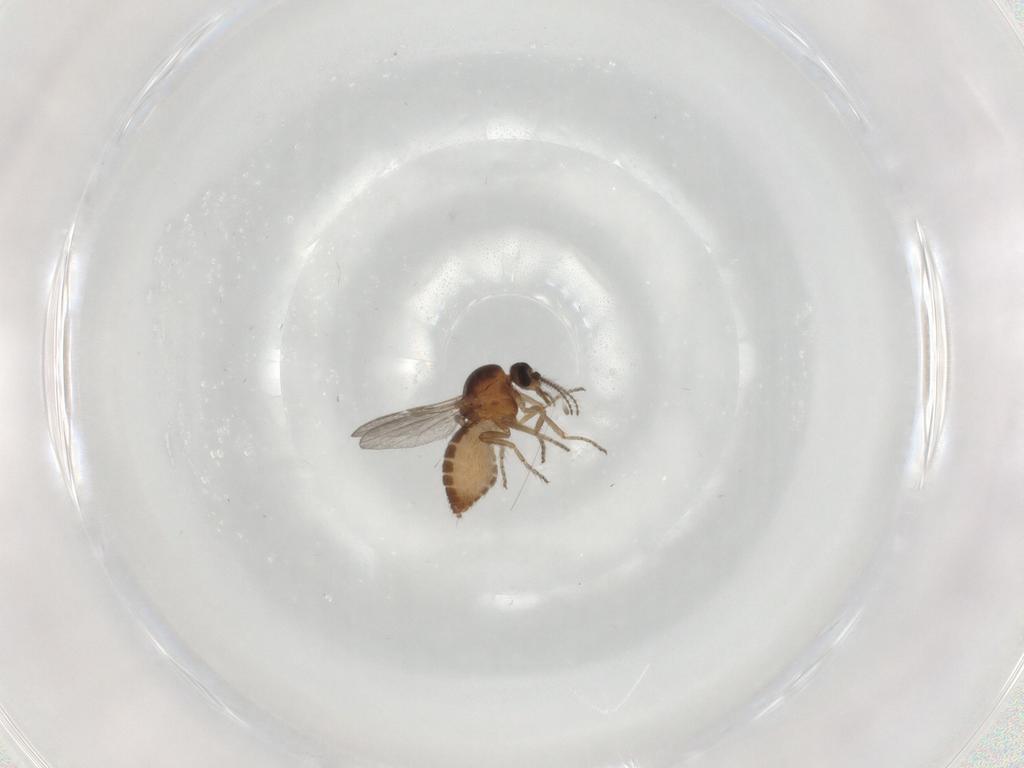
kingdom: Animalia
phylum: Arthropoda
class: Insecta
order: Diptera
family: Ceratopogonidae
